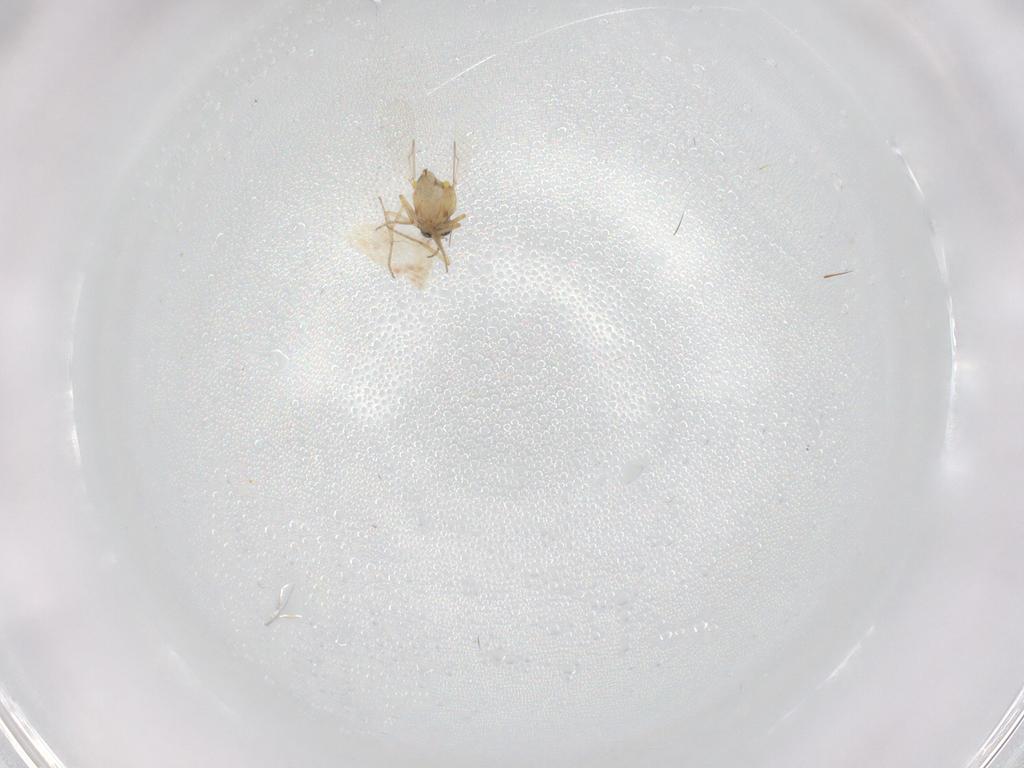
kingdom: Animalia
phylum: Arthropoda
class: Insecta
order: Diptera
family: Ceratopogonidae
